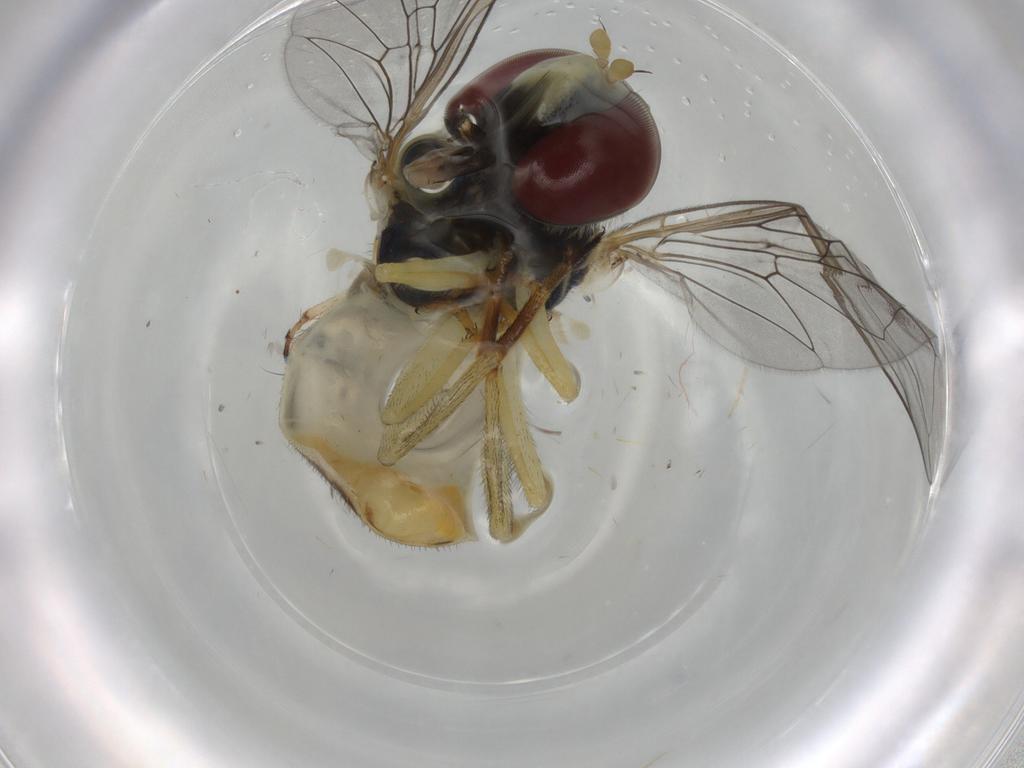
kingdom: Animalia
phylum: Arthropoda
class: Insecta
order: Diptera
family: Syrphidae
